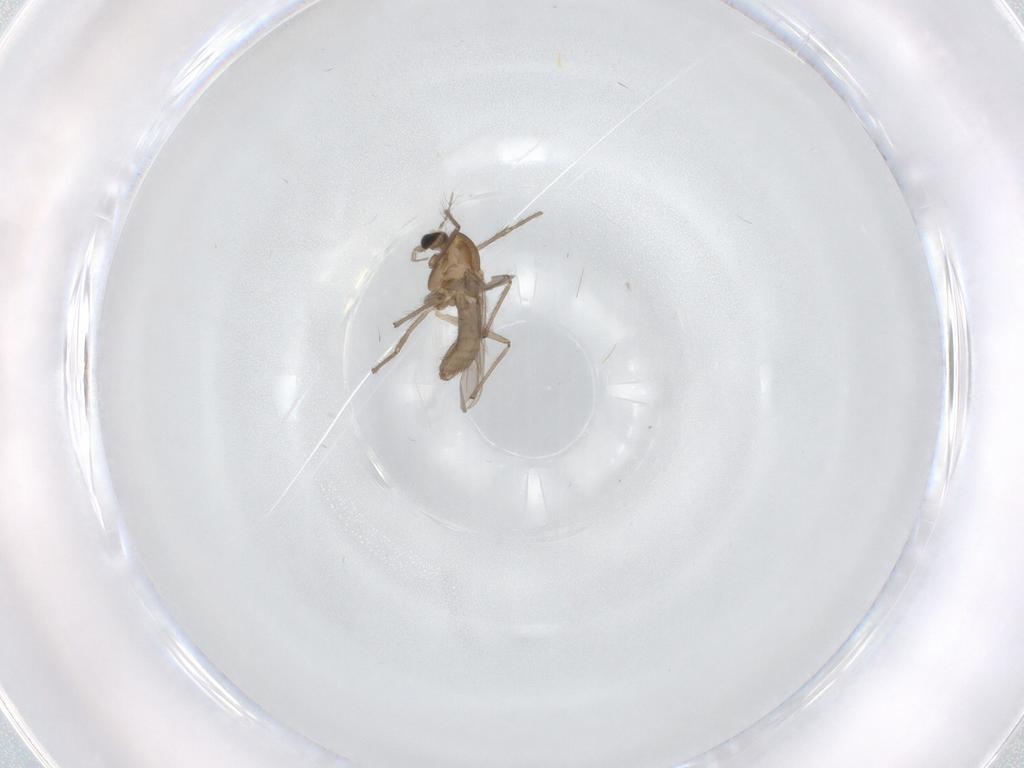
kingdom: Animalia
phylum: Arthropoda
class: Insecta
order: Diptera
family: Chironomidae
